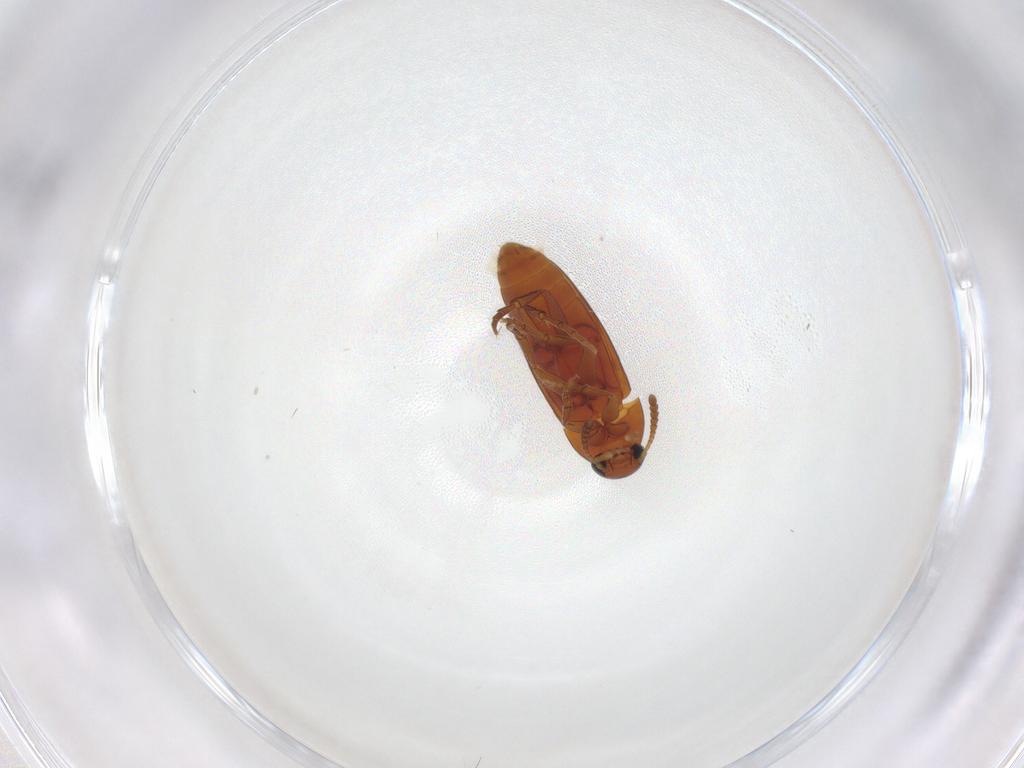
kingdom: Animalia
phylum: Arthropoda
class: Insecta
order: Coleoptera
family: Scraptiidae
